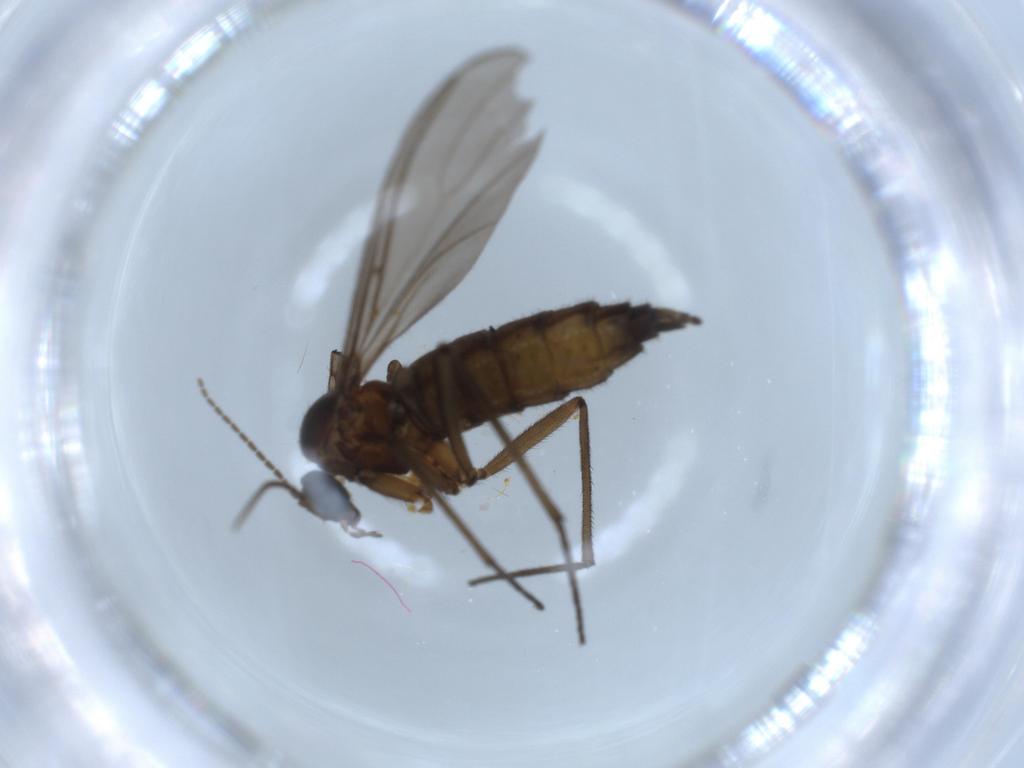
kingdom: Animalia
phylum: Arthropoda
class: Insecta
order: Diptera
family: Sciaridae
